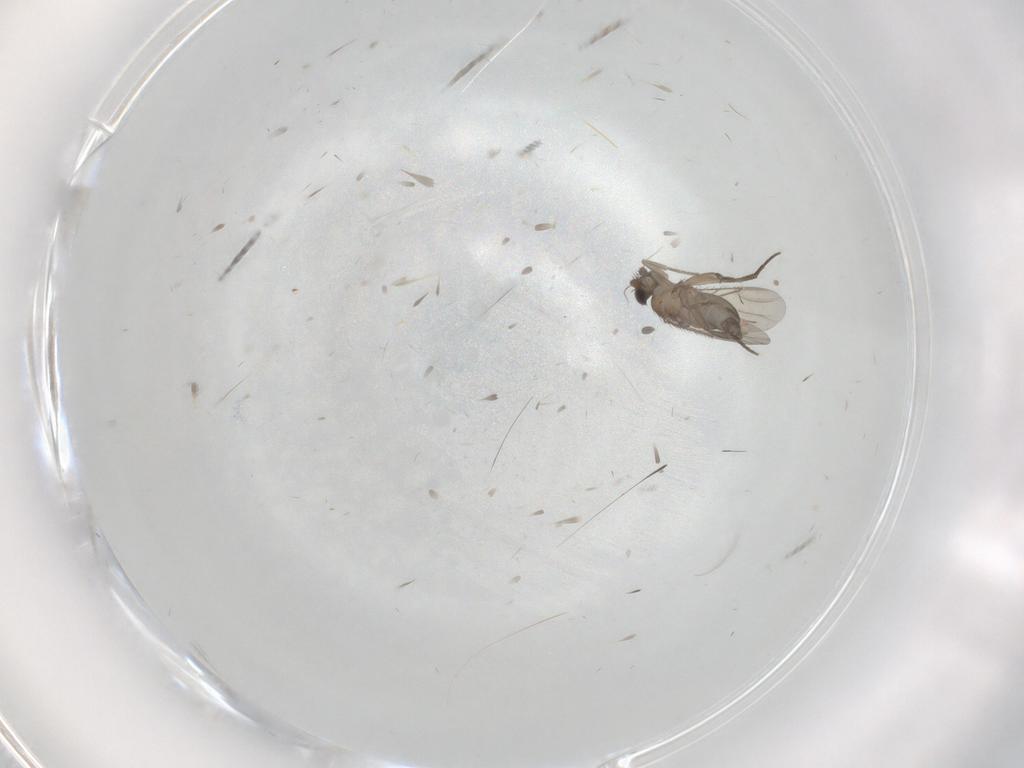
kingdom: Animalia
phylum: Arthropoda
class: Insecta
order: Diptera
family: Phoridae
